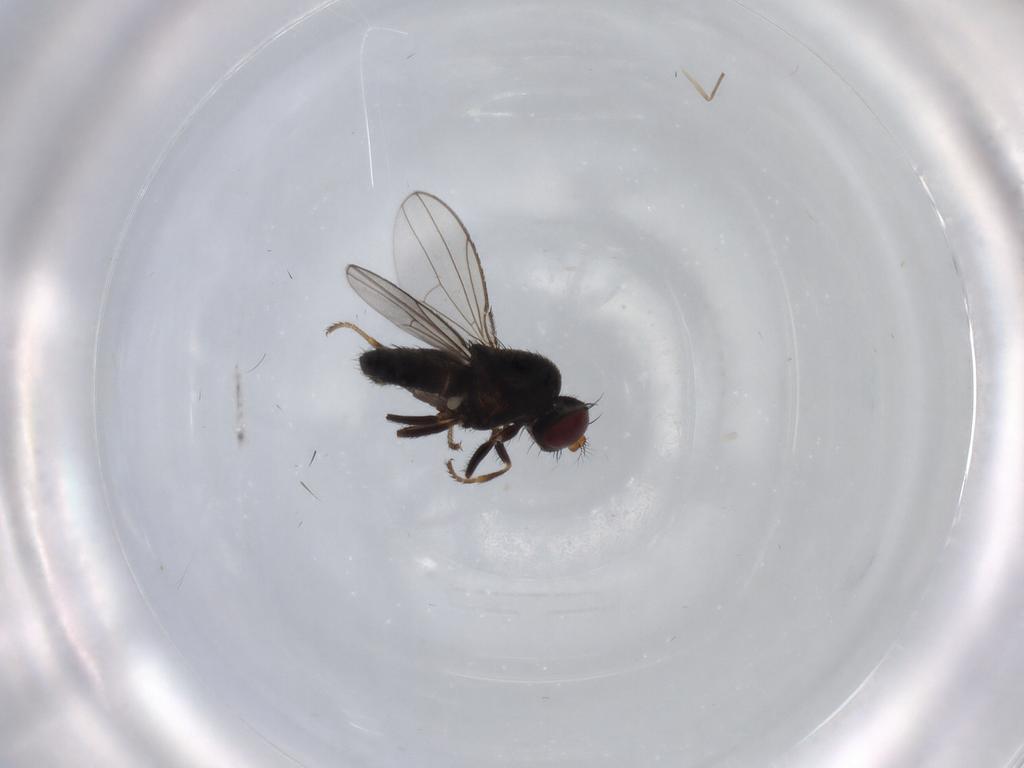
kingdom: Animalia
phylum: Arthropoda
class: Insecta
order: Diptera
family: Ephydridae
